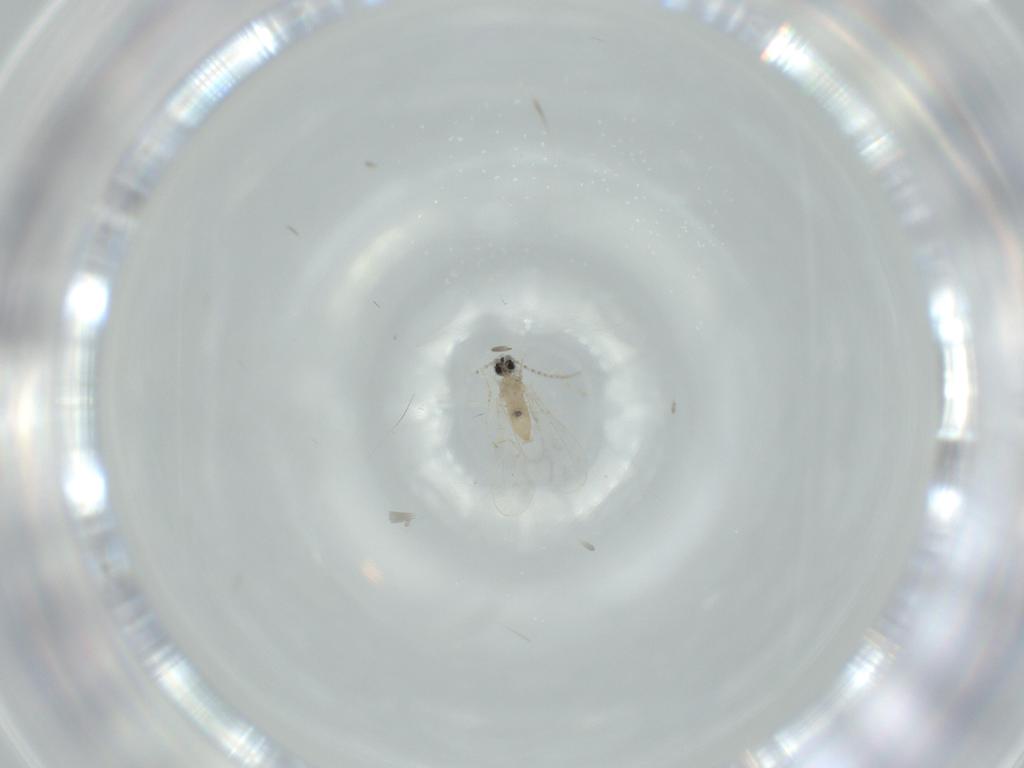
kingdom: Animalia
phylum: Arthropoda
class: Insecta
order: Diptera
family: Cecidomyiidae
